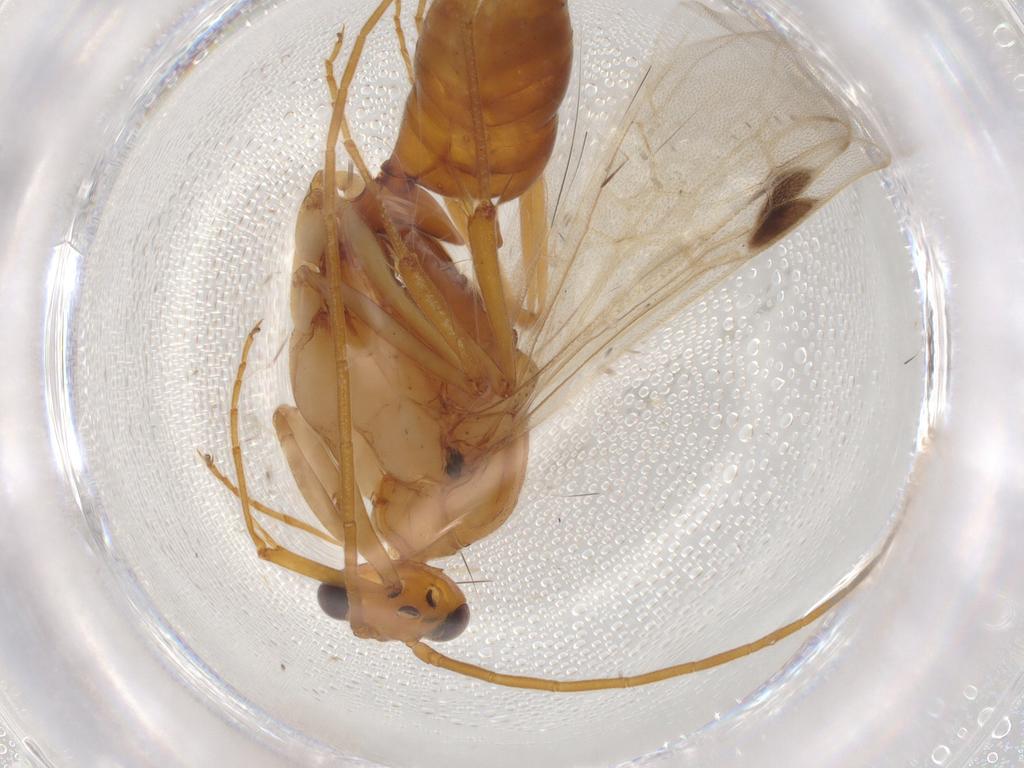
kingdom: Animalia
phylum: Arthropoda
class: Insecta
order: Hymenoptera
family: Formicidae
